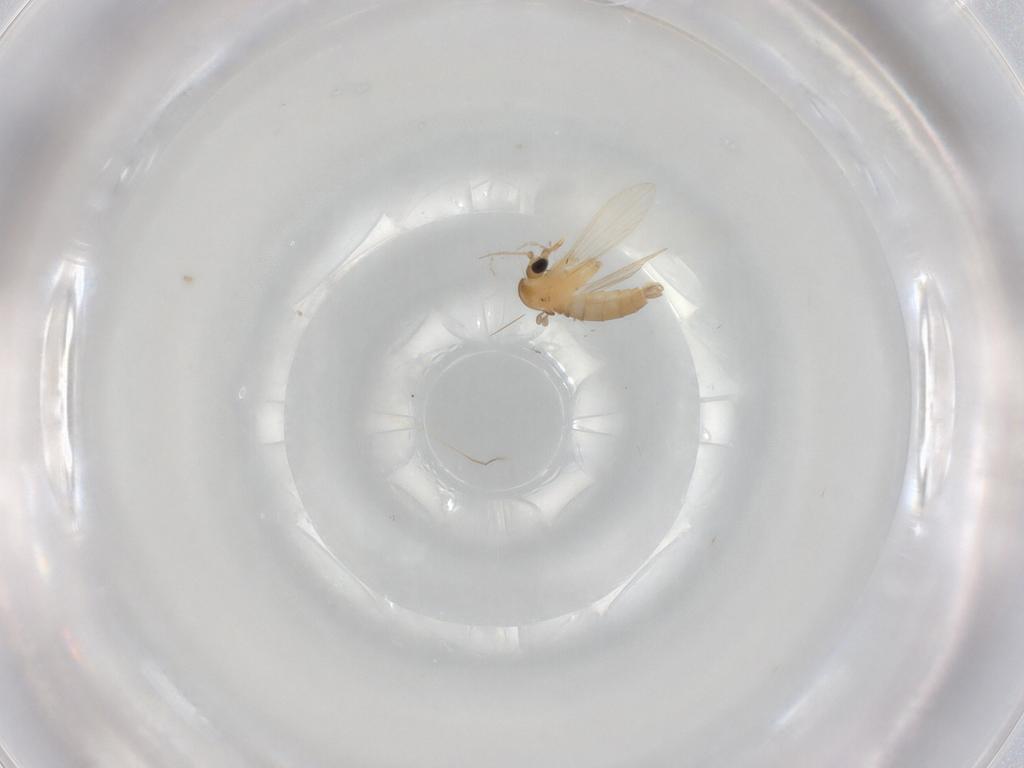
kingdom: Animalia
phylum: Arthropoda
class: Insecta
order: Diptera
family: Psychodidae
